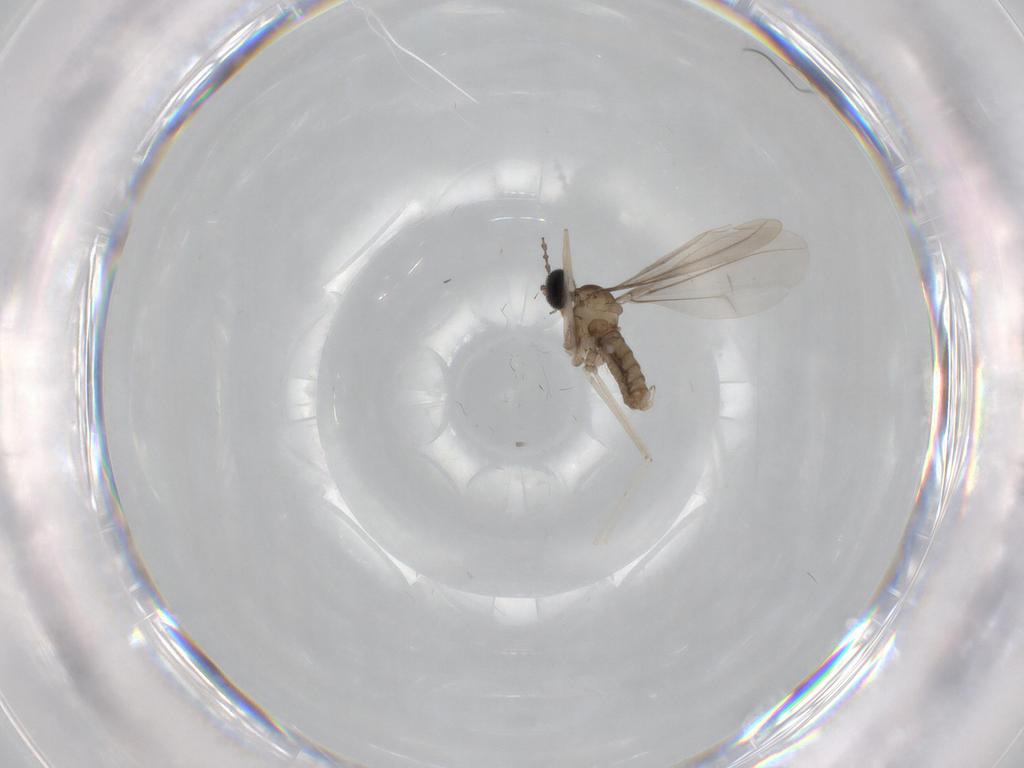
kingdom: Animalia
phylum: Arthropoda
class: Insecta
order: Diptera
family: Cecidomyiidae
